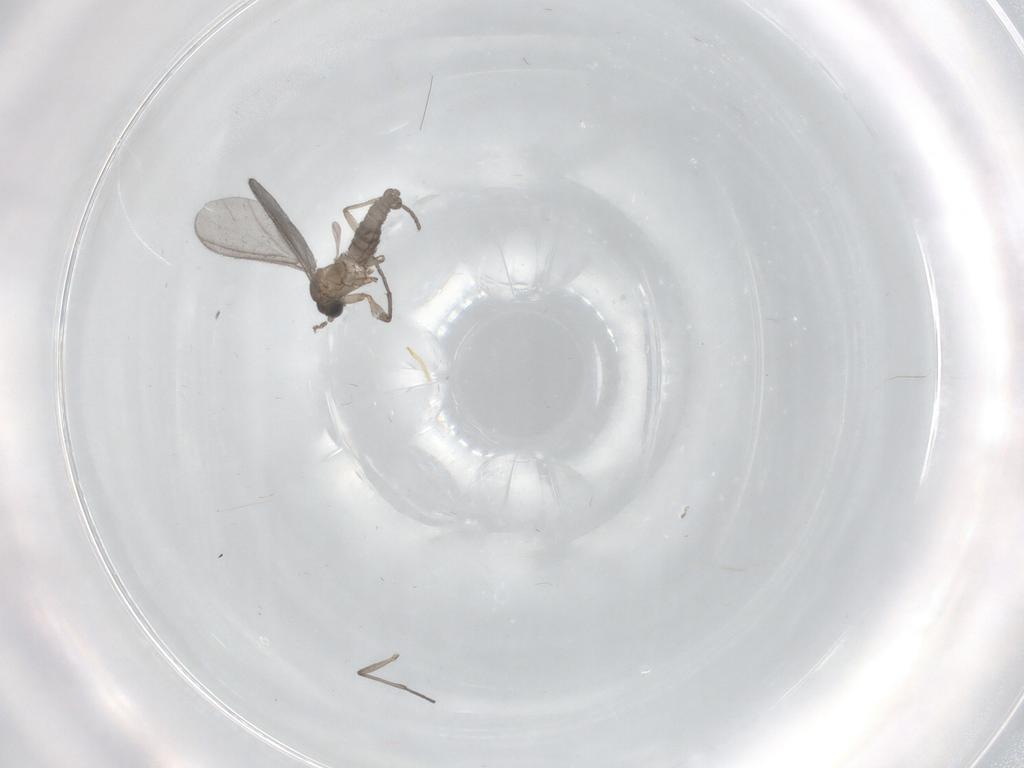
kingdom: Animalia
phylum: Arthropoda
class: Insecta
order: Diptera
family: Sciaridae
